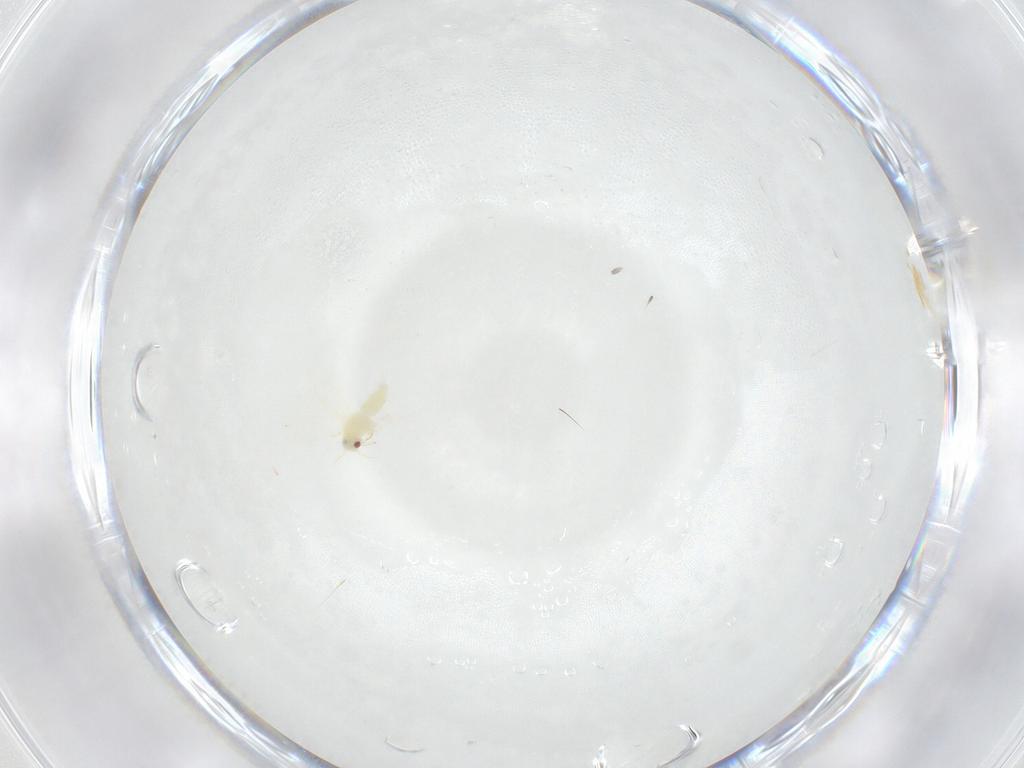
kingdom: Animalia
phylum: Arthropoda
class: Insecta
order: Hemiptera
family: Aleyrodidae
